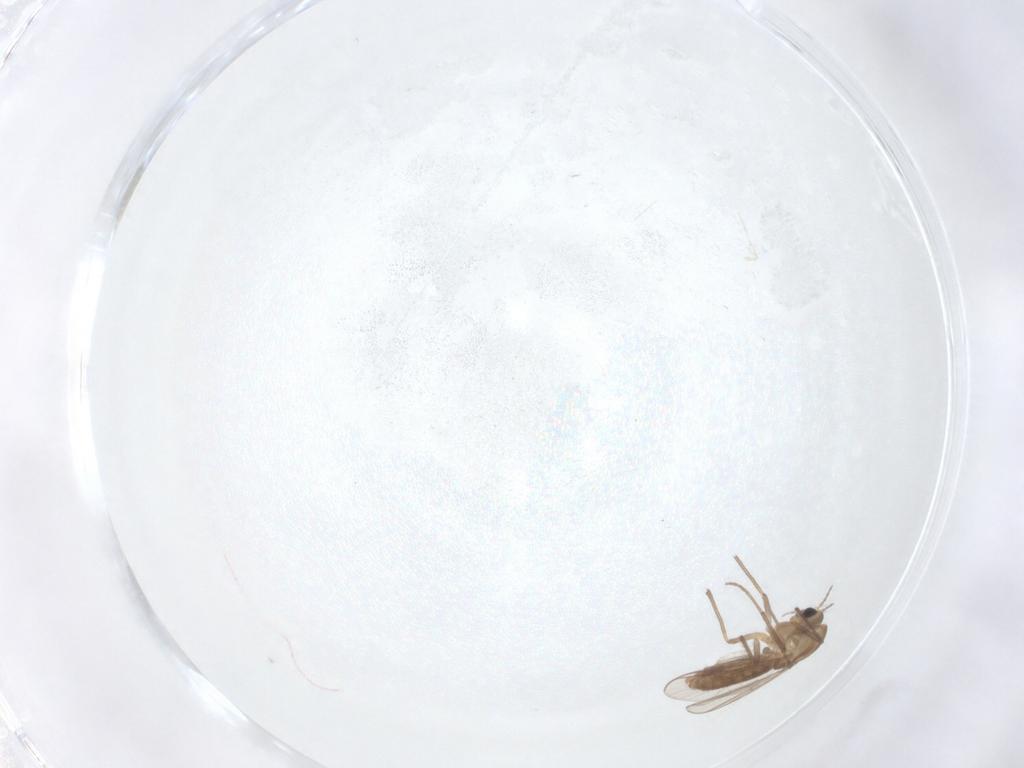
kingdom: Animalia
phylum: Arthropoda
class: Insecta
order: Diptera
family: Chironomidae
